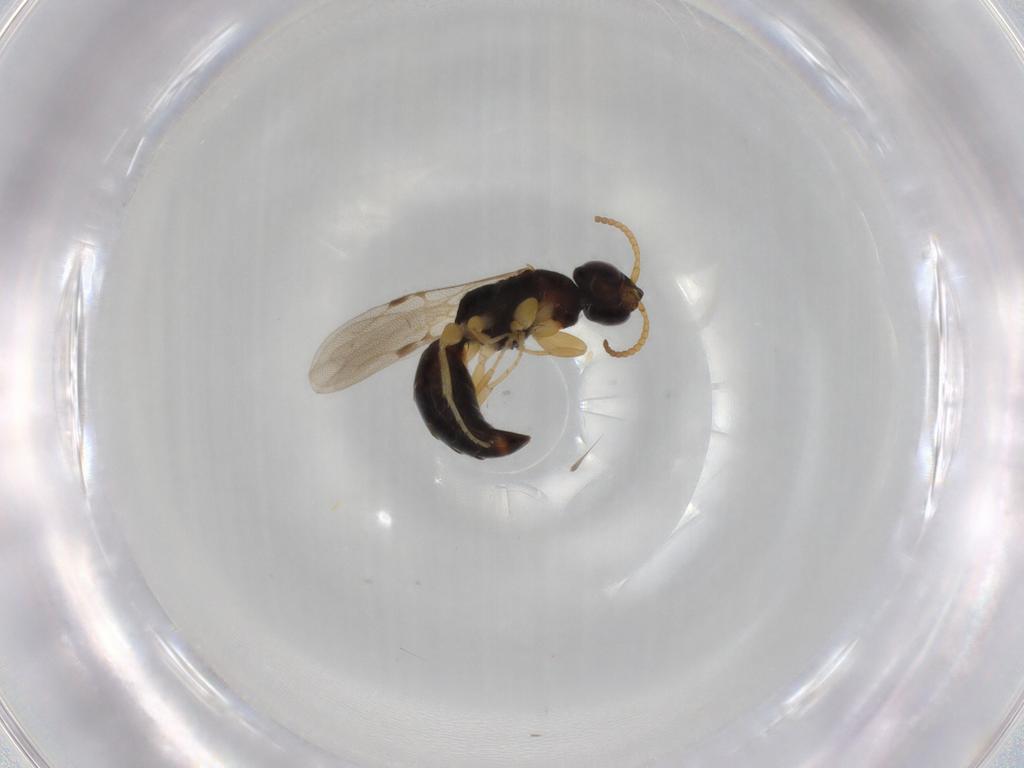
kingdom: Animalia
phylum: Arthropoda
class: Insecta
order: Hymenoptera
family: Bethylidae
